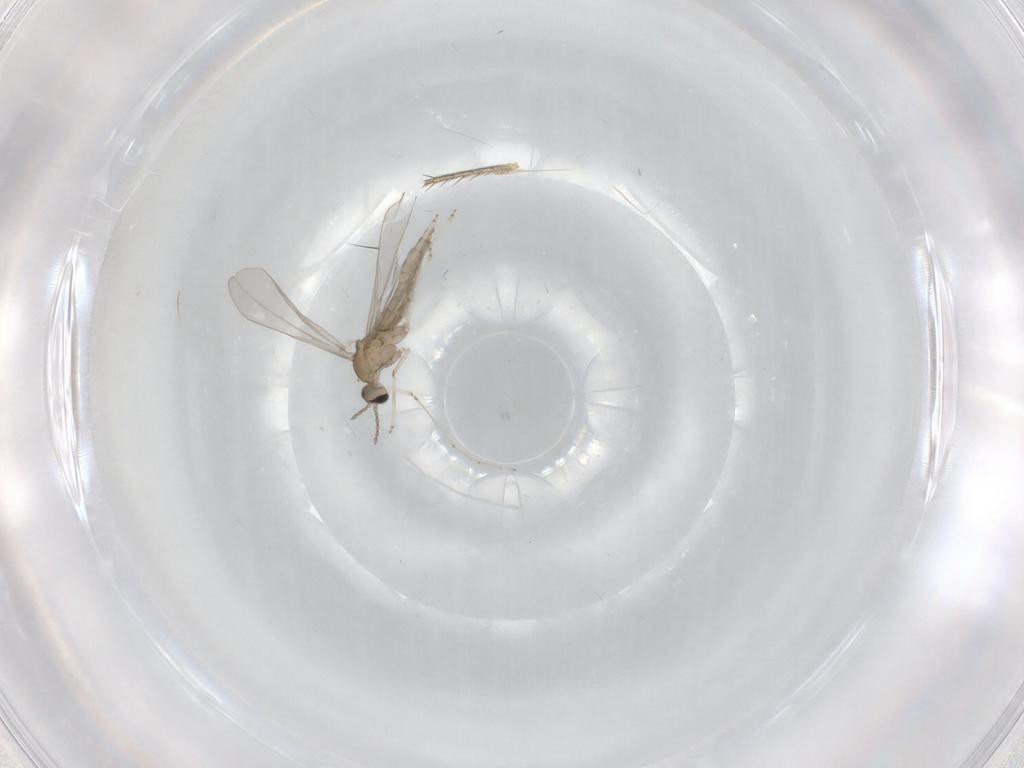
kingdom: Animalia
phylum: Arthropoda
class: Insecta
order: Diptera
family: Cecidomyiidae
